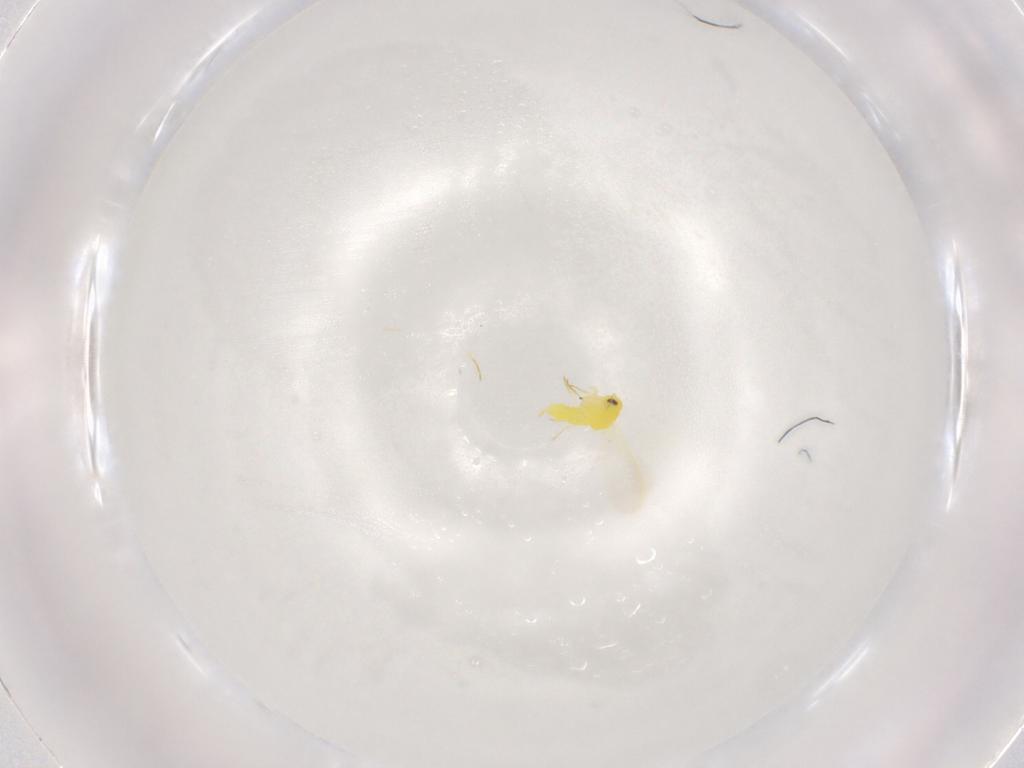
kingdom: Animalia
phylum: Arthropoda
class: Insecta
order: Hemiptera
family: Aleyrodidae
